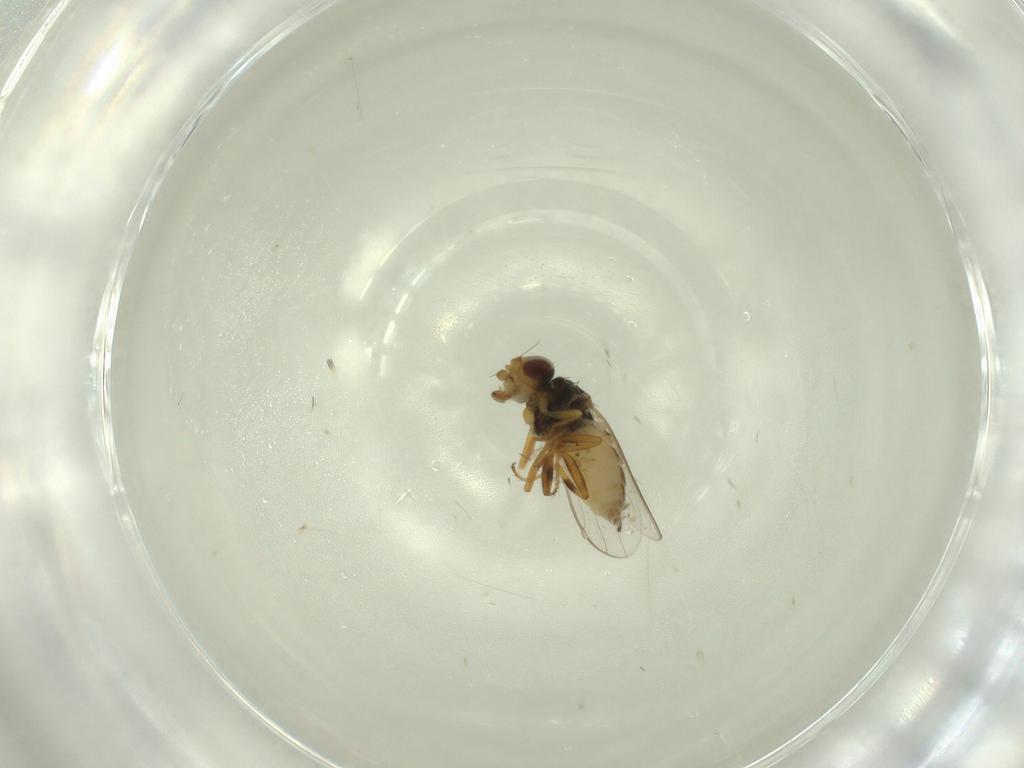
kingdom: Animalia
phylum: Arthropoda
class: Insecta
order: Diptera
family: Chloropidae
